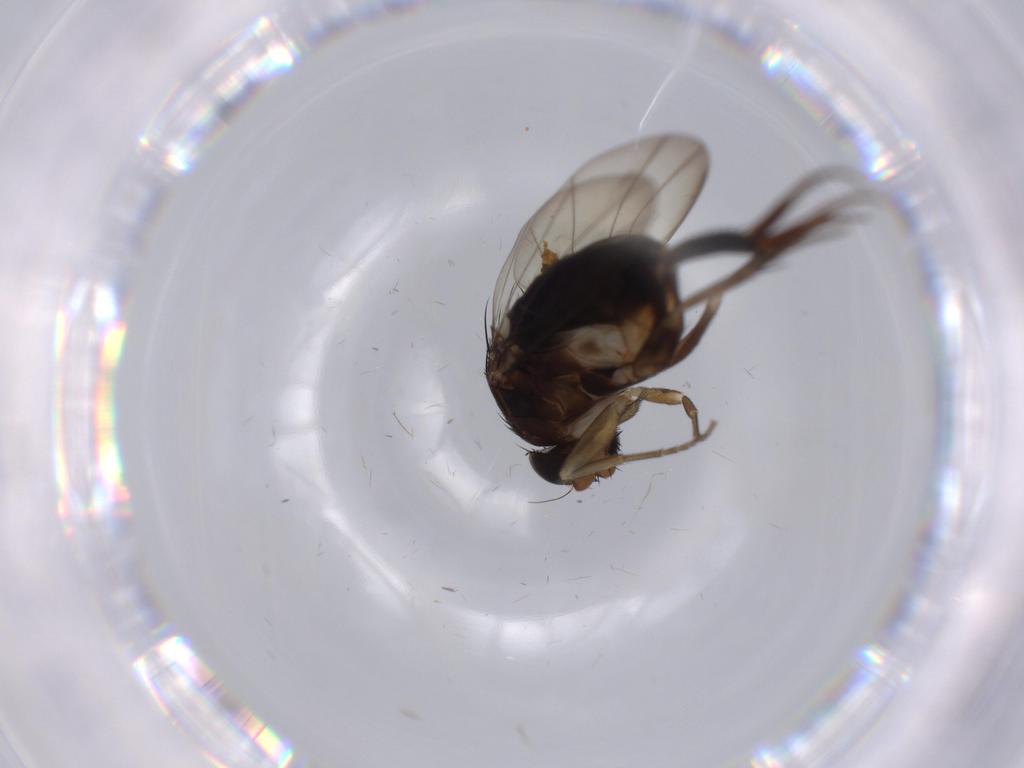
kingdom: Animalia
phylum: Arthropoda
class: Insecta
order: Diptera
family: Phoridae
